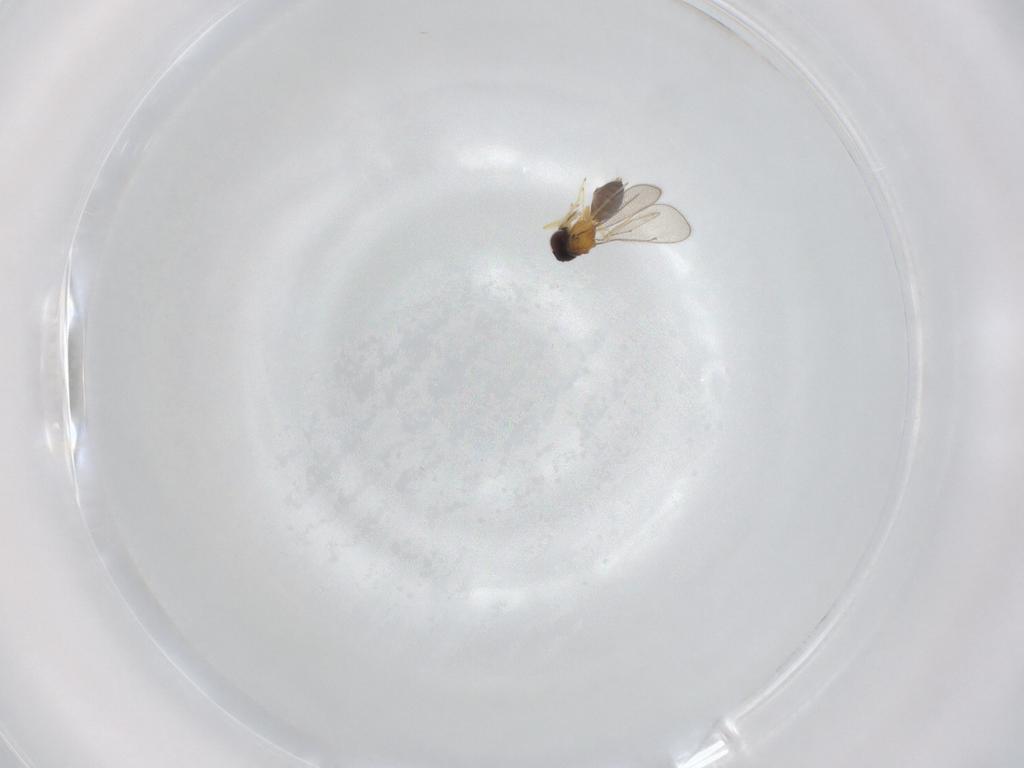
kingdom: Animalia
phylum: Arthropoda
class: Insecta
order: Hymenoptera
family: Eulophidae
